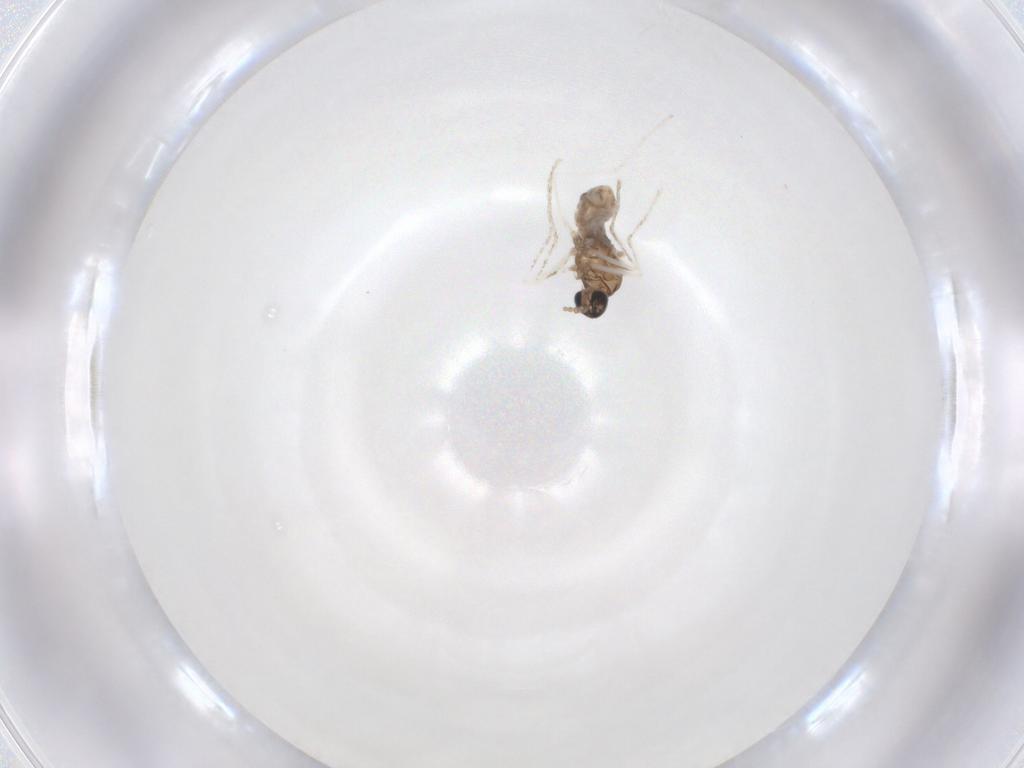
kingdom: Animalia
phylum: Arthropoda
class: Insecta
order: Diptera
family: Cecidomyiidae
